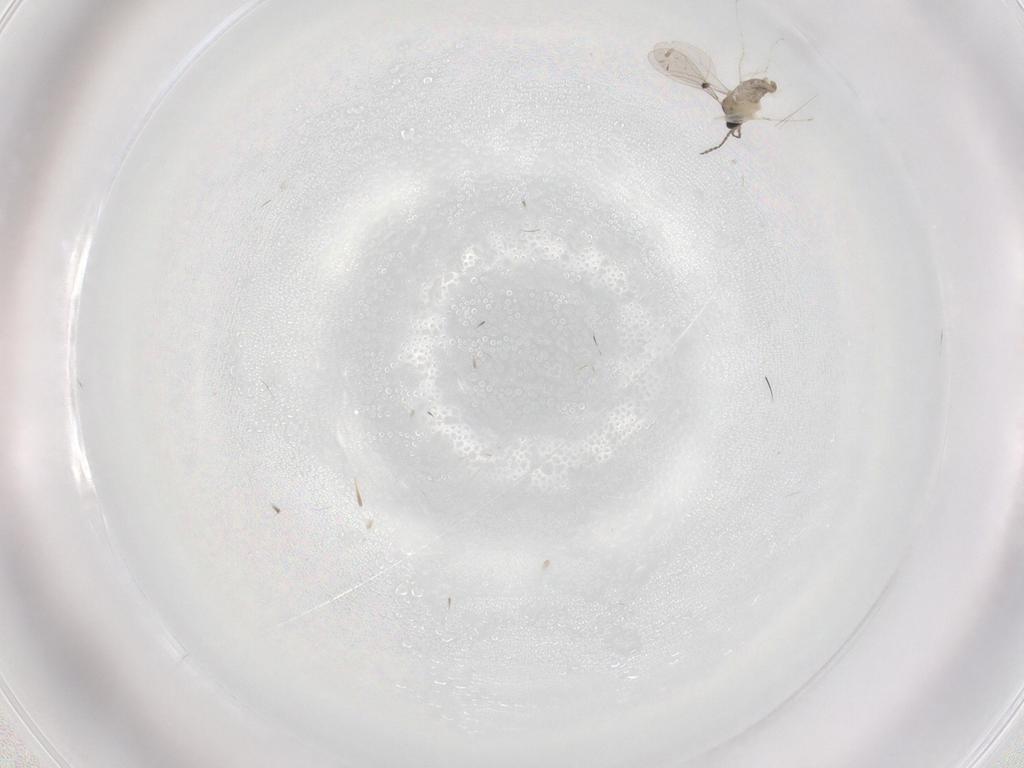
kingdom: Animalia
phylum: Arthropoda
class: Insecta
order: Diptera
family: Cecidomyiidae
